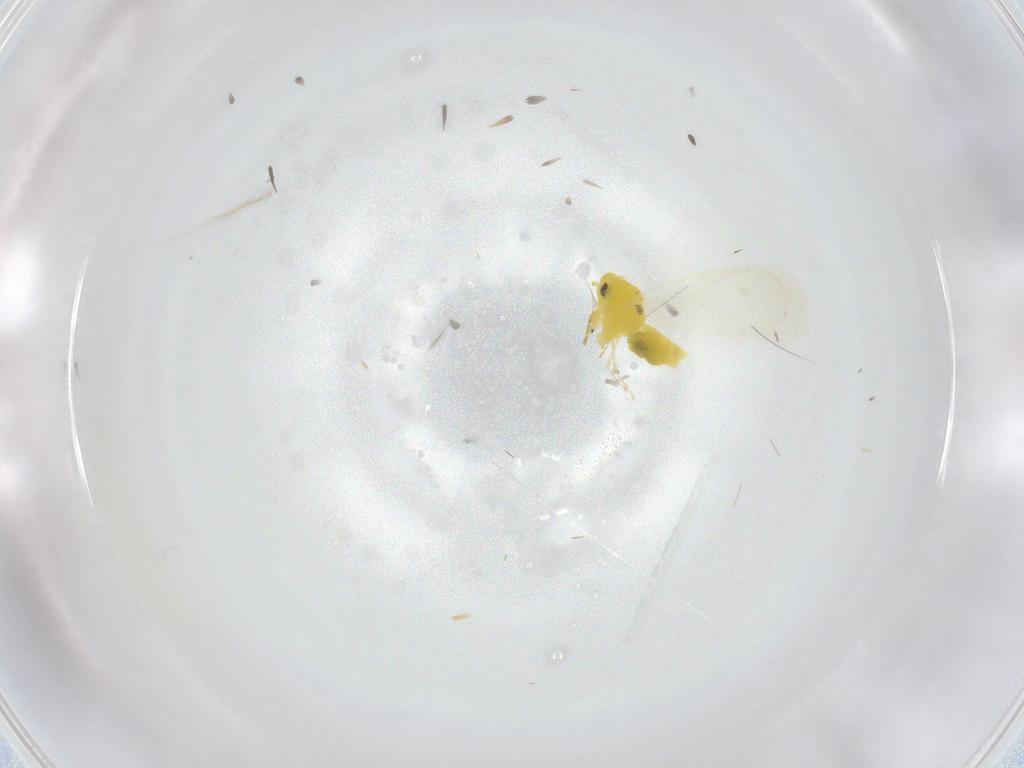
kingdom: Animalia
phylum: Arthropoda
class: Insecta
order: Hemiptera
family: Aleyrodidae
